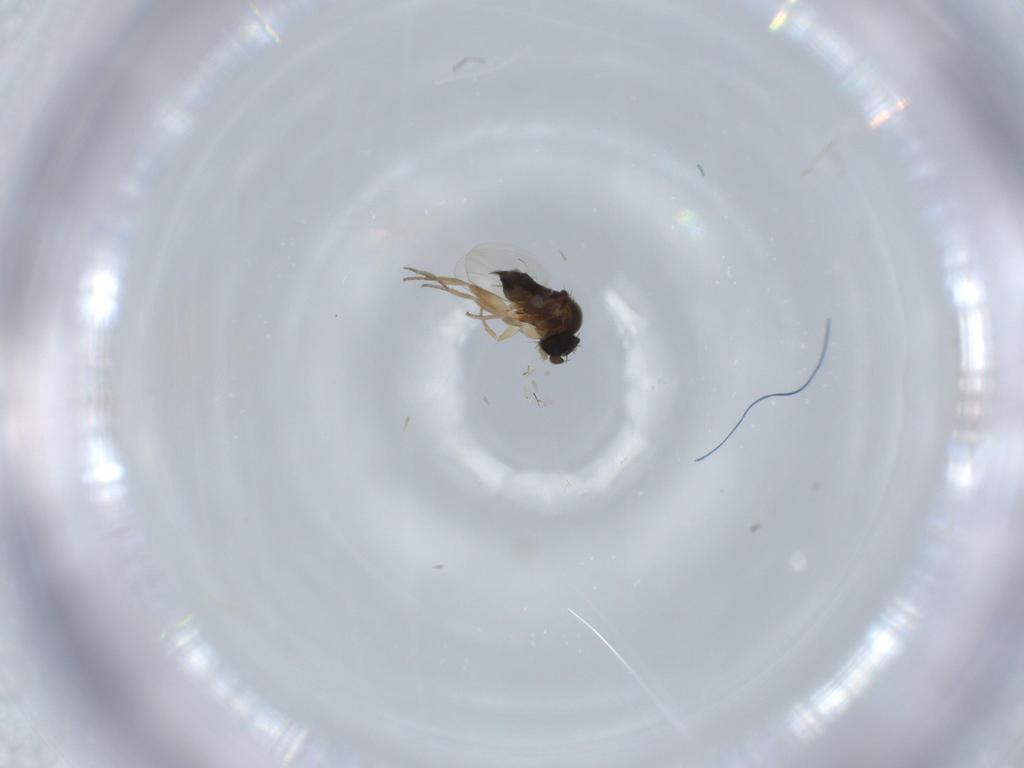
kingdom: Animalia
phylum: Arthropoda
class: Insecta
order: Diptera
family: Phoridae
